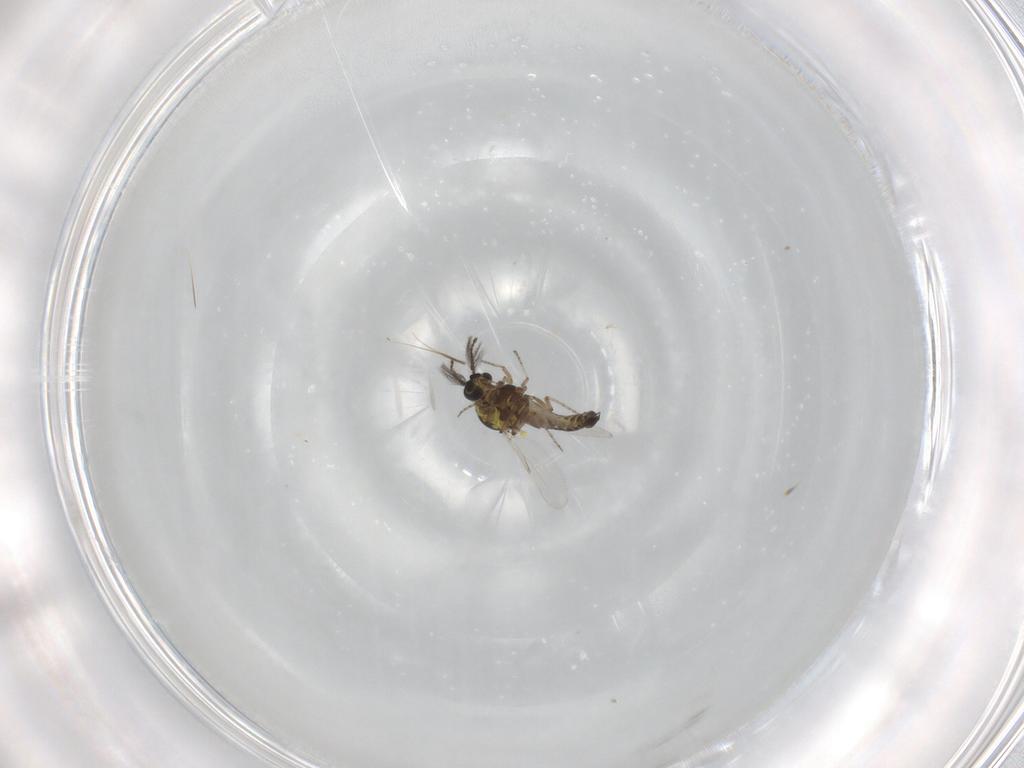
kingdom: Animalia
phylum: Arthropoda
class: Insecta
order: Diptera
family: Ceratopogonidae
